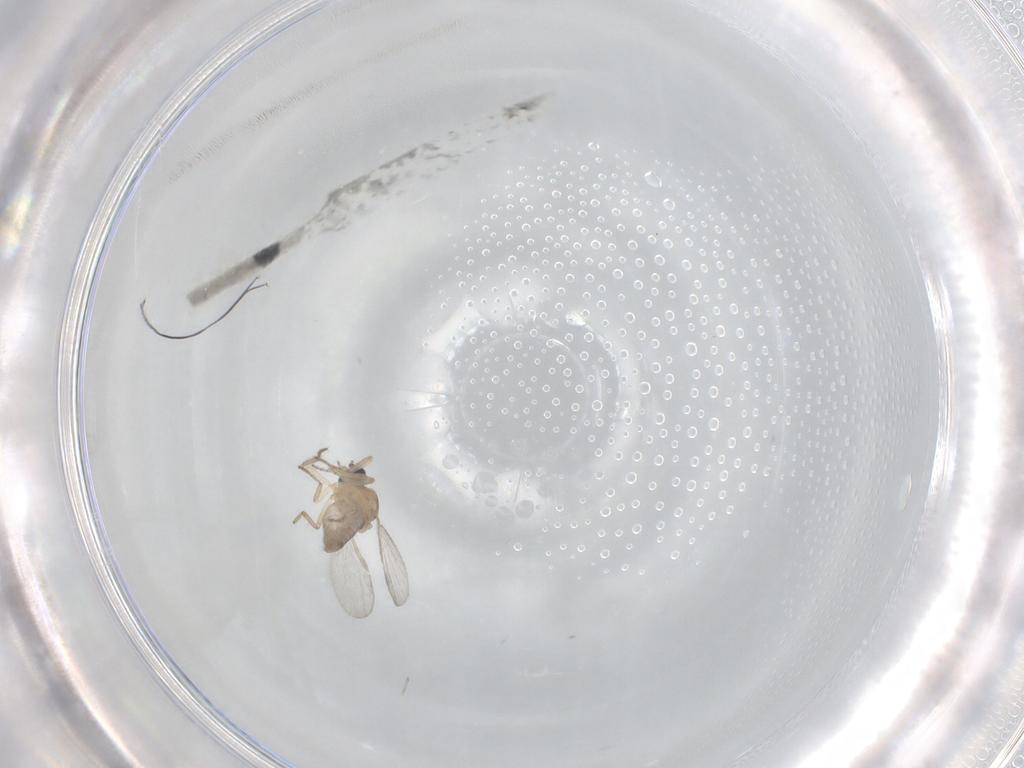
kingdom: Animalia
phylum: Arthropoda
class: Insecta
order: Diptera
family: Ceratopogonidae
